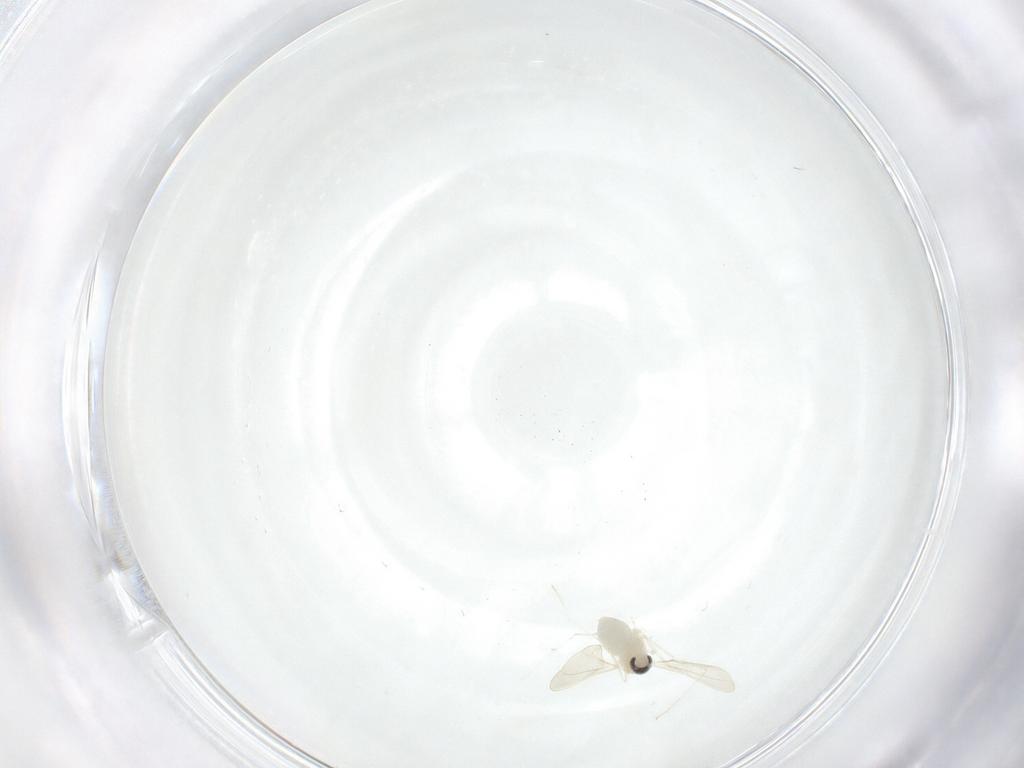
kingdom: Animalia
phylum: Arthropoda
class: Insecta
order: Diptera
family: Cecidomyiidae
